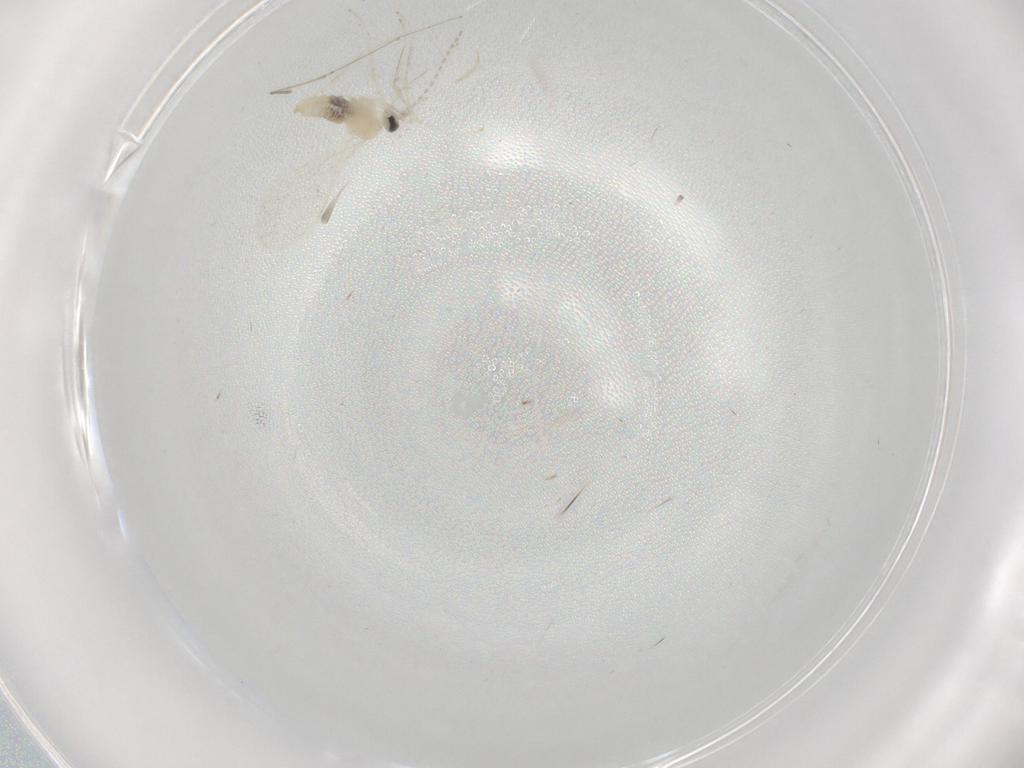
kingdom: Animalia
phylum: Arthropoda
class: Insecta
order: Diptera
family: Cecidomyiidae
